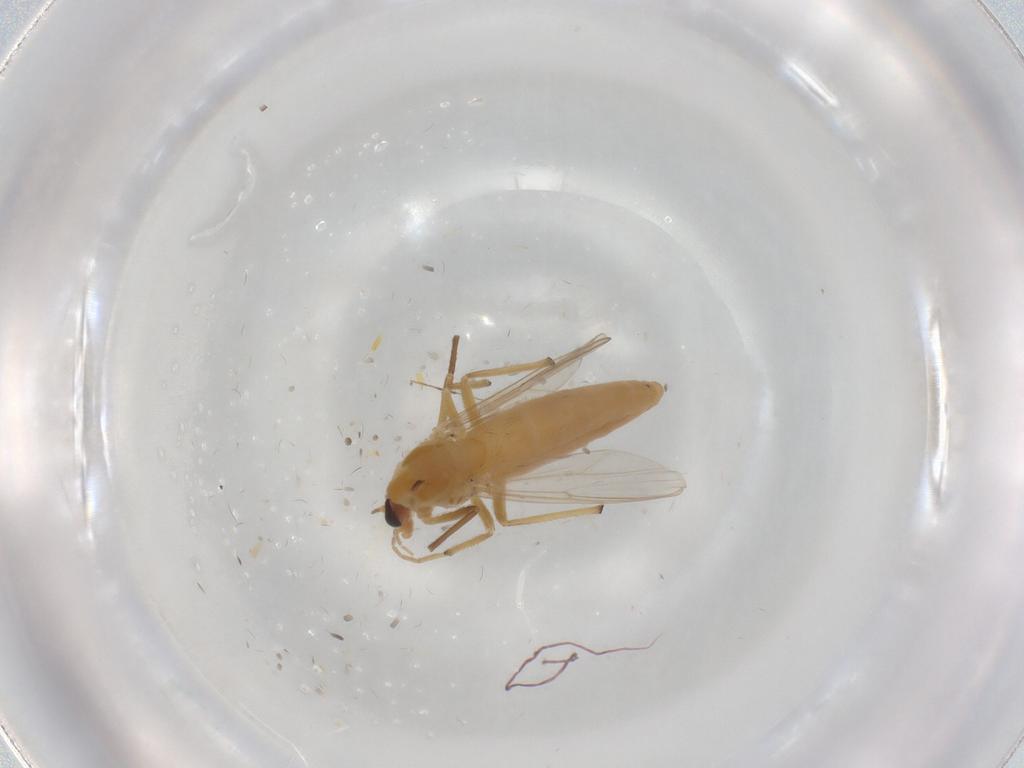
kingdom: Animalia
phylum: Arthropoda
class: Insecta
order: Diptera
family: Chironomidae
